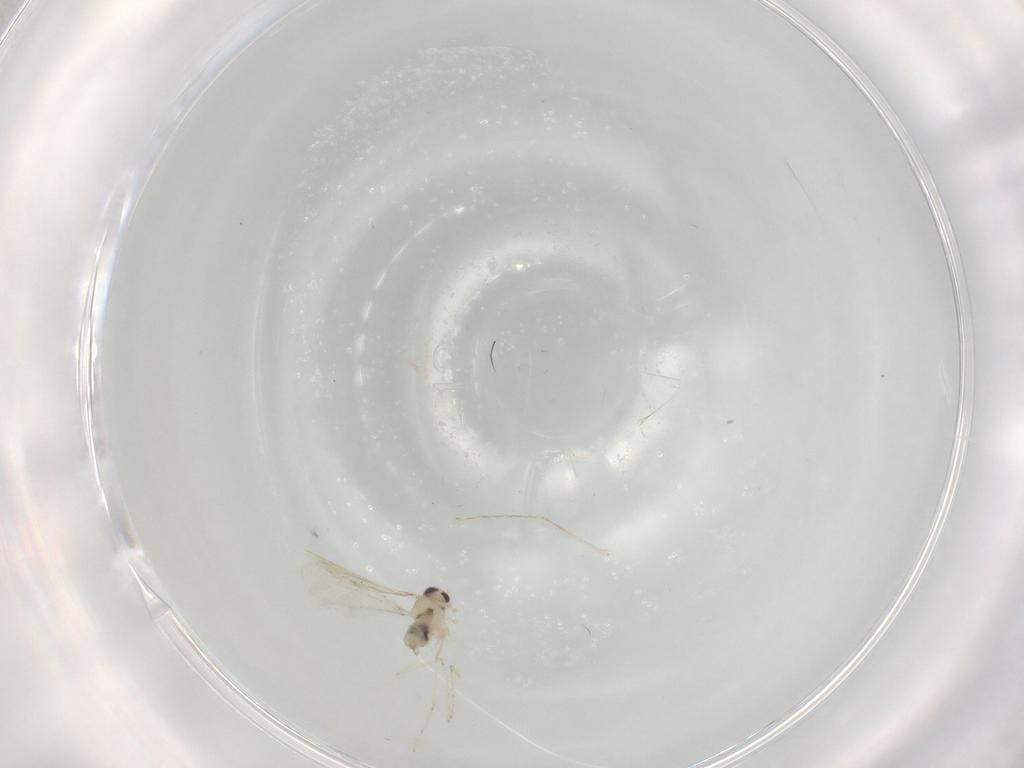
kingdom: Animalia
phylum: Arthropoda
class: Insecta
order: Diptera
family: Cecidomyiidae
